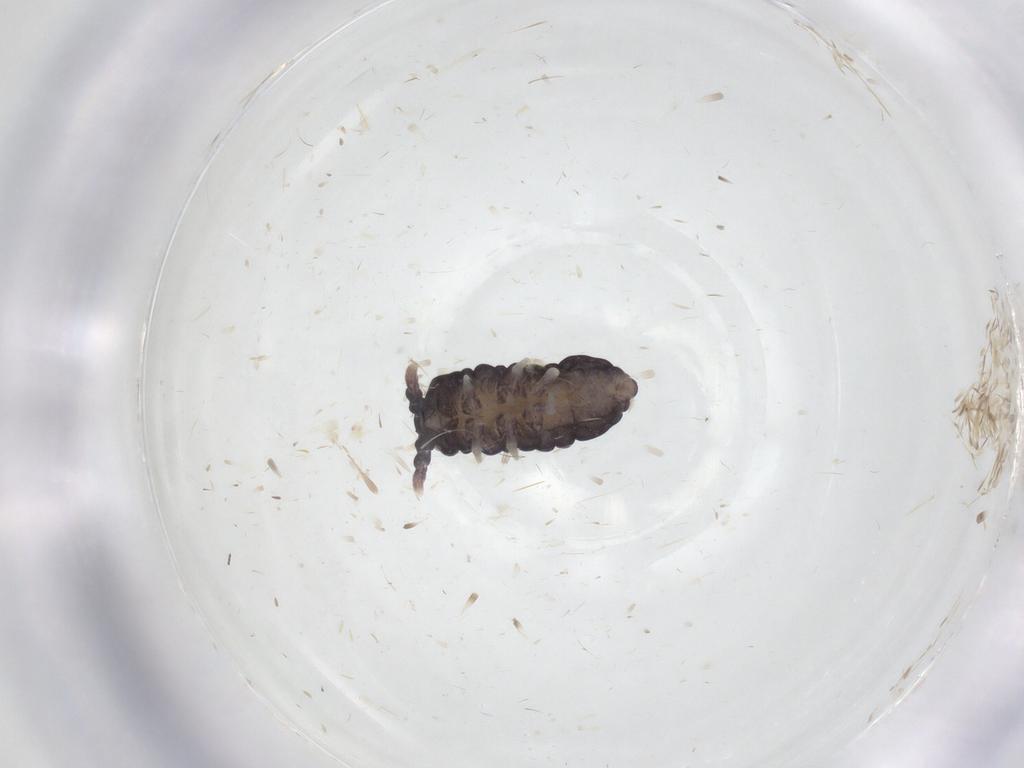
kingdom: Animalia
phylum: Arthropoda
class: Collembola
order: Poduromorpha
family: Neanuridae
